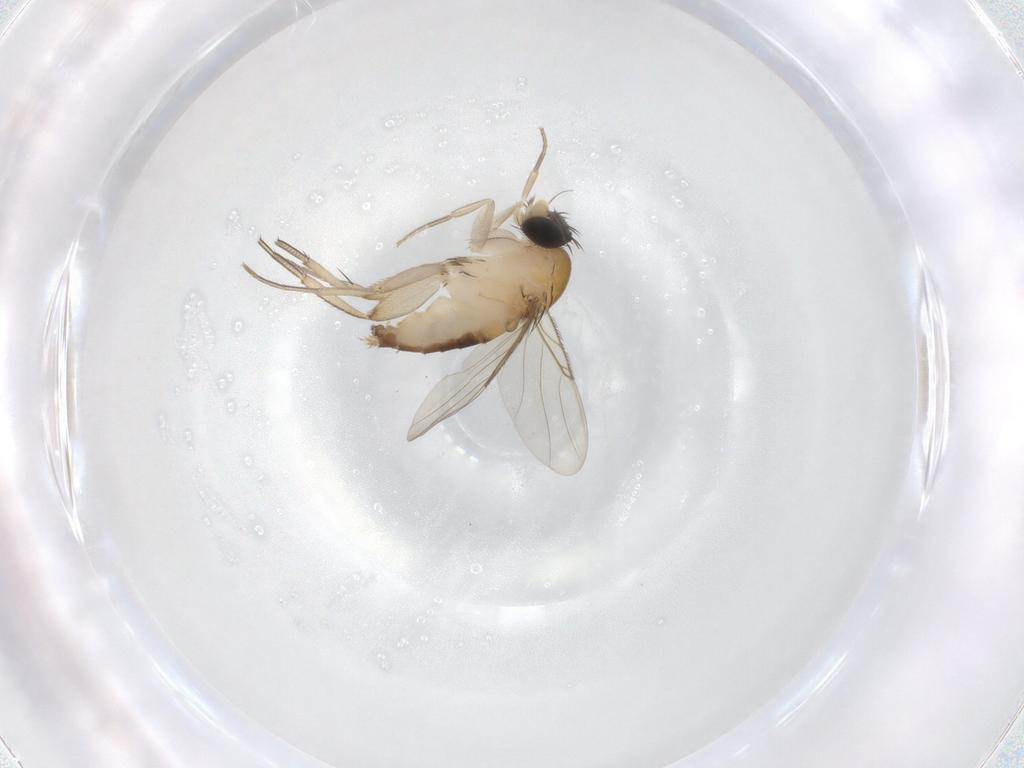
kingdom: Animalia
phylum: Arthropoda
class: Insecta
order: Diptera
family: Phoridae
